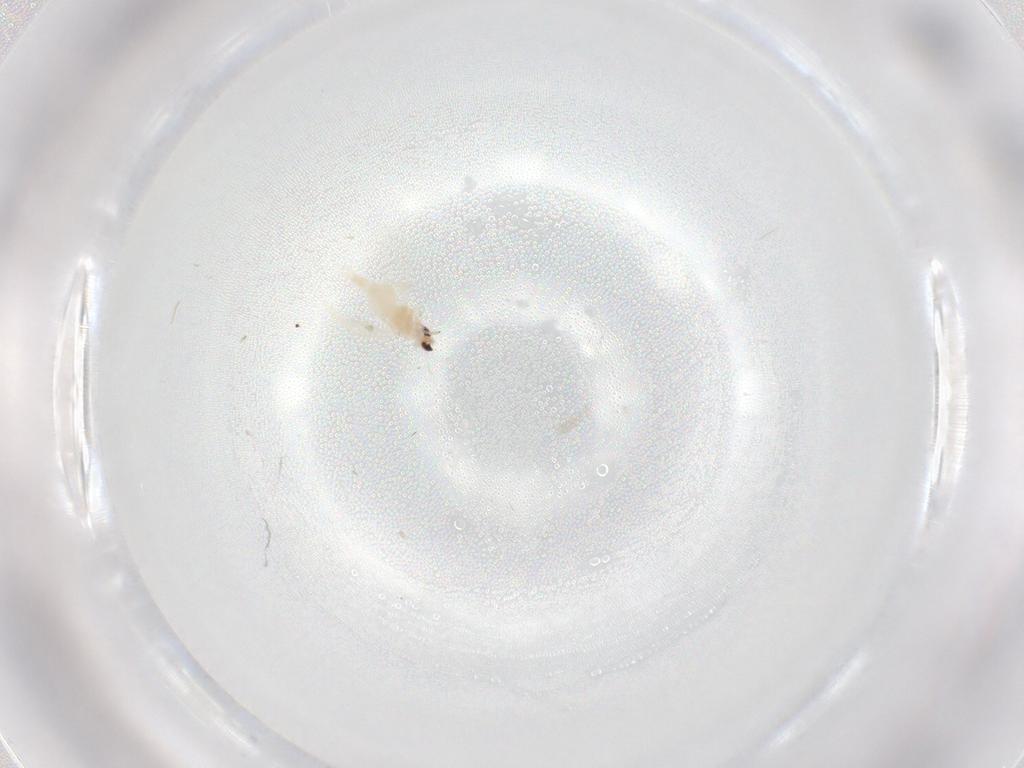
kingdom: Animalia
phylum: Arthropoda
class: Insecta
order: Hemiptera
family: Aleyrodidae
